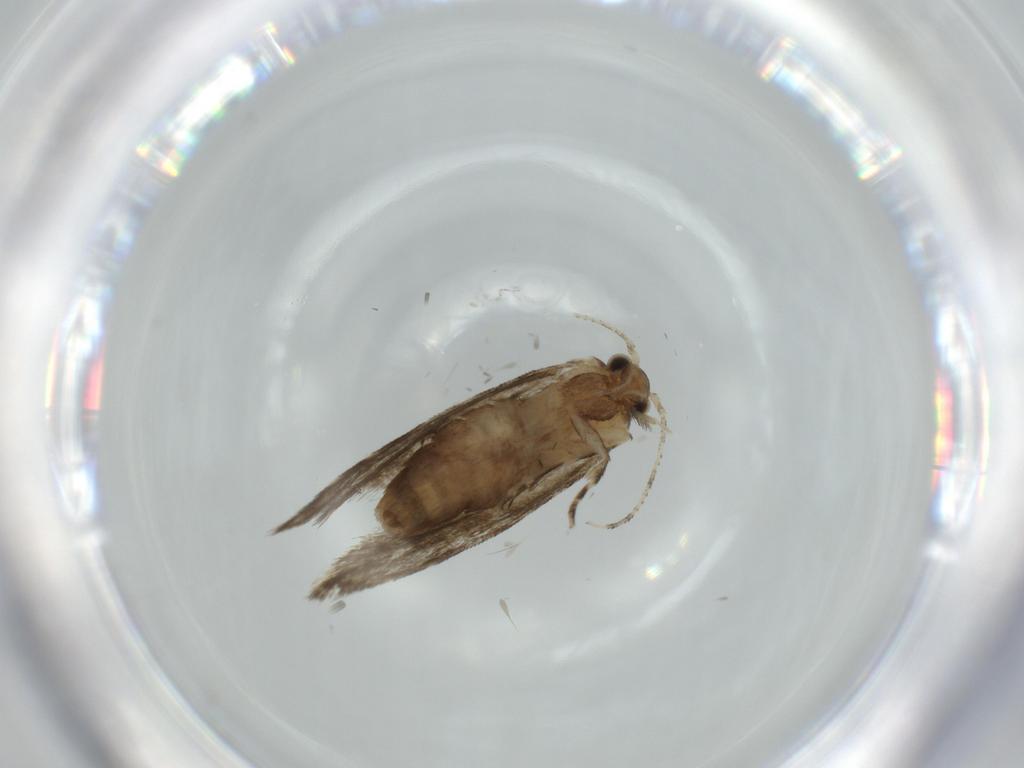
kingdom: Animalia
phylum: Arthropoda
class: Insecta
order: Lepidoptera
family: Tineidae
